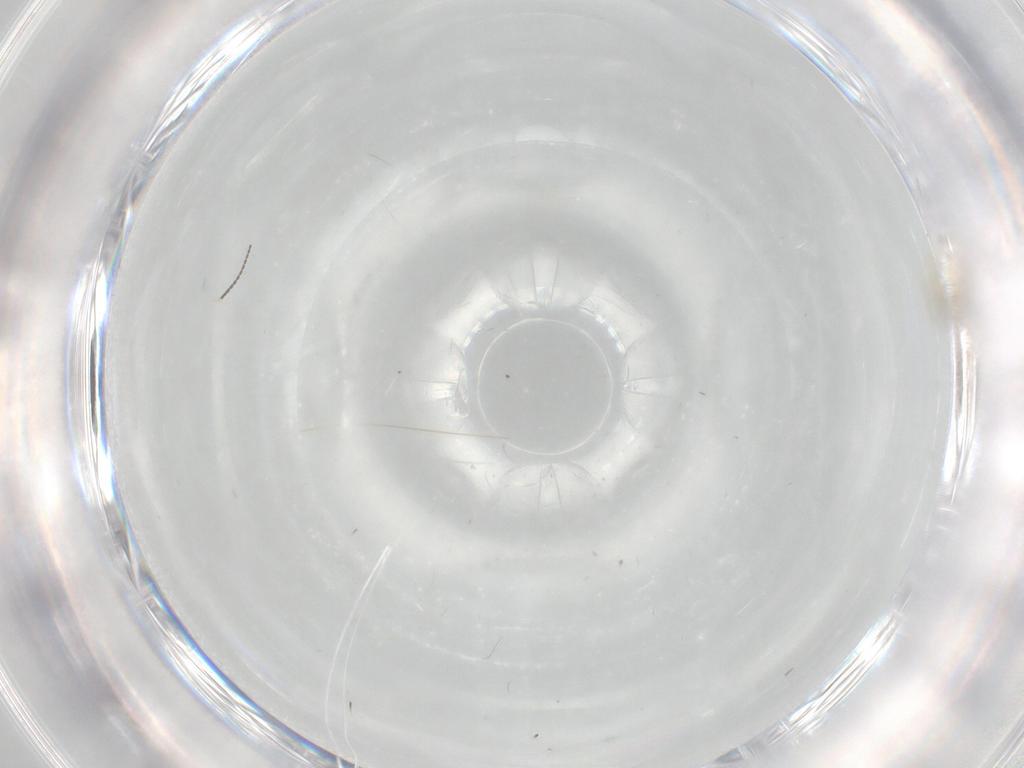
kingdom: Animalia
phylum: Arthropoda
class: Insecta
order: Diptera
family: Cecidomyiidae
